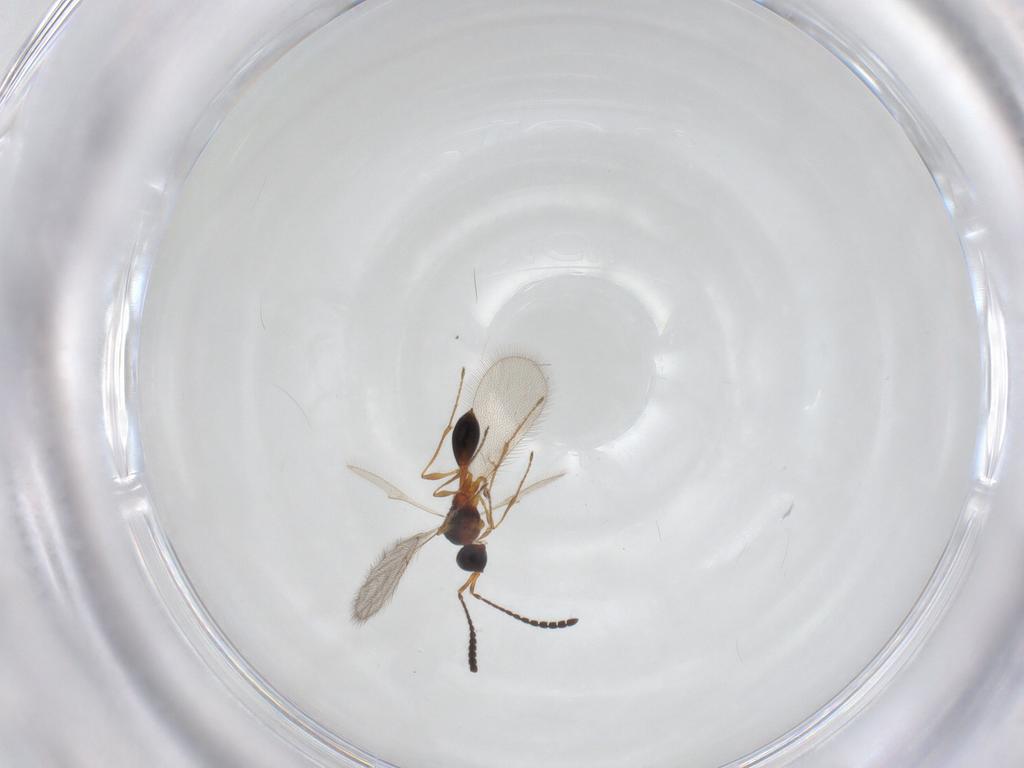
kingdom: Animalia
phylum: Arthropoda
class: Insecta
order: Hymenoptera
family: Diapriidae
